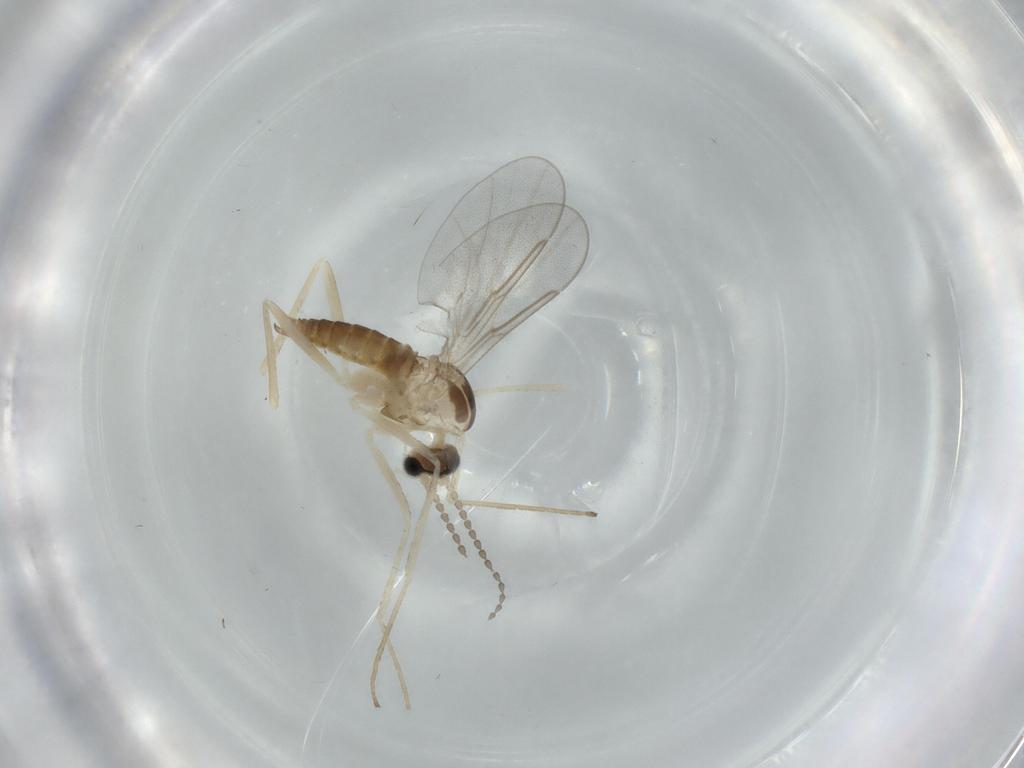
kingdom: Animalia
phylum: Arthropoda
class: Insecta
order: Diptera
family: Cecidomyiidae
